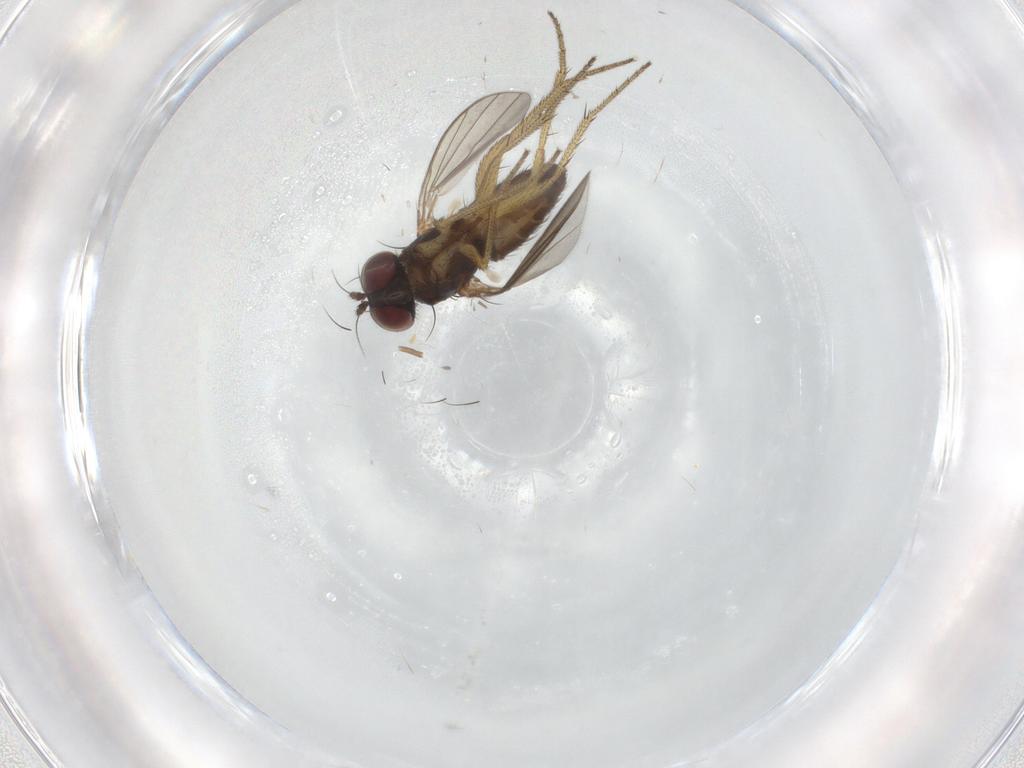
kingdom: Animalia
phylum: Arthropoda
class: Insecta
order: Diptera
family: Dolichopodidae
